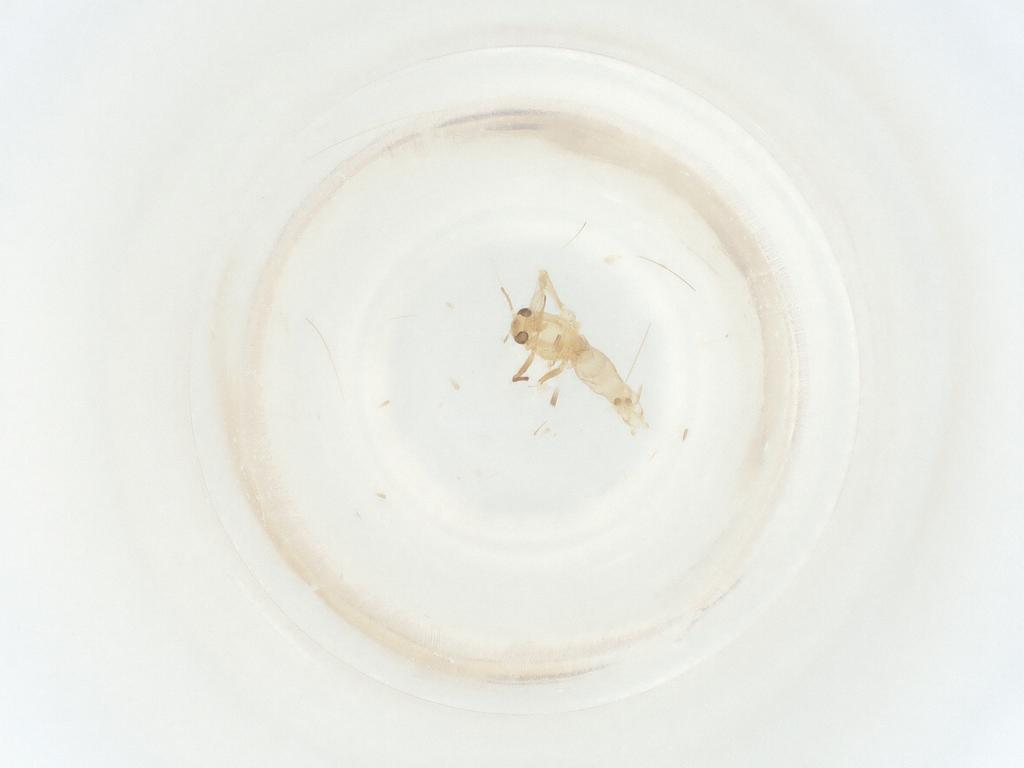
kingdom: Animalia
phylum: Arthropoda
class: Insecta
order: Diptera
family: Chironomidae
